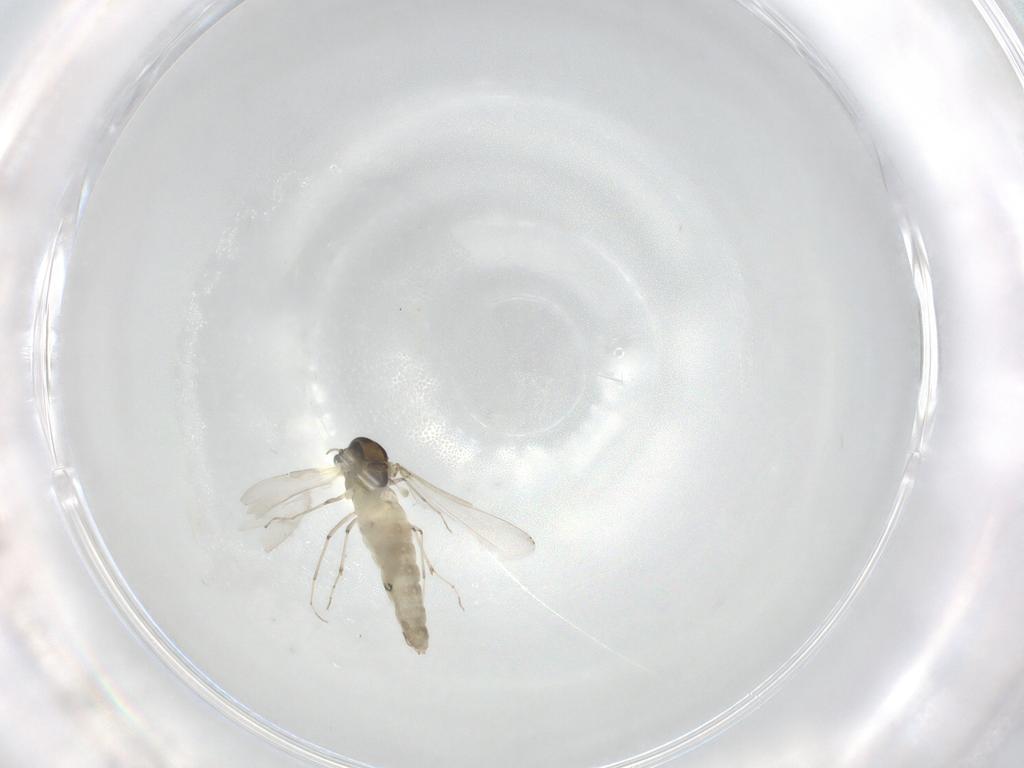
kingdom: Animalia
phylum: Arthropoda
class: Insecta
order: Diptera
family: Chironomidae
